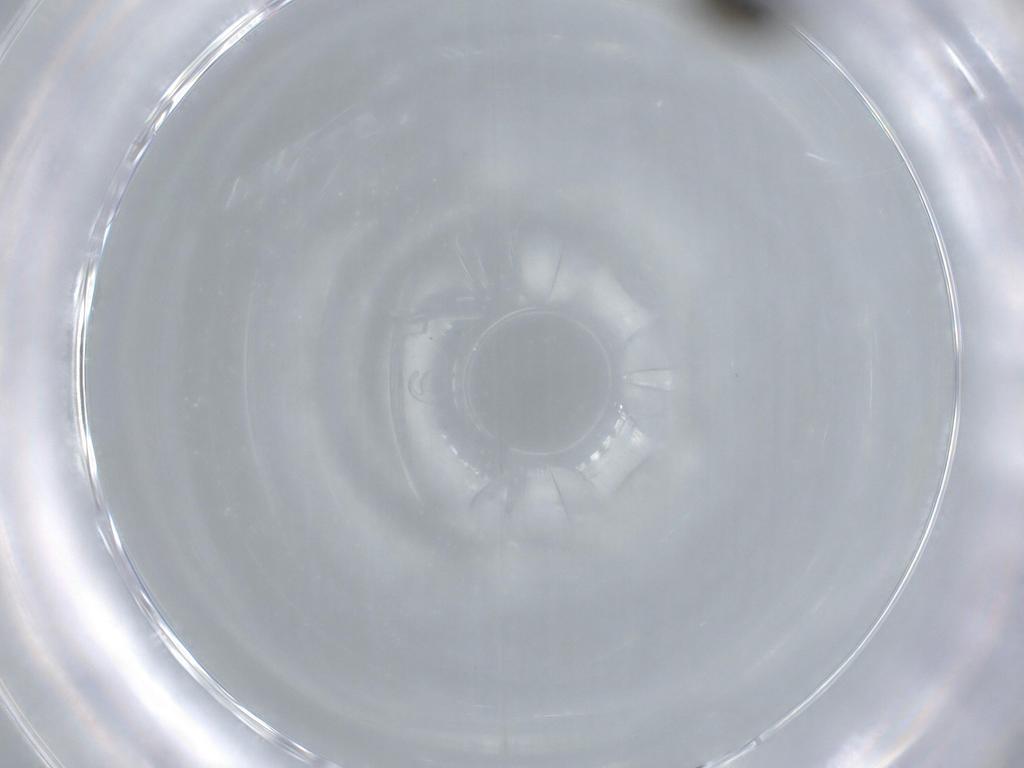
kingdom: Animalia
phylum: Arthropoda
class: Insecta
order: Diptera
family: Ephydridae
